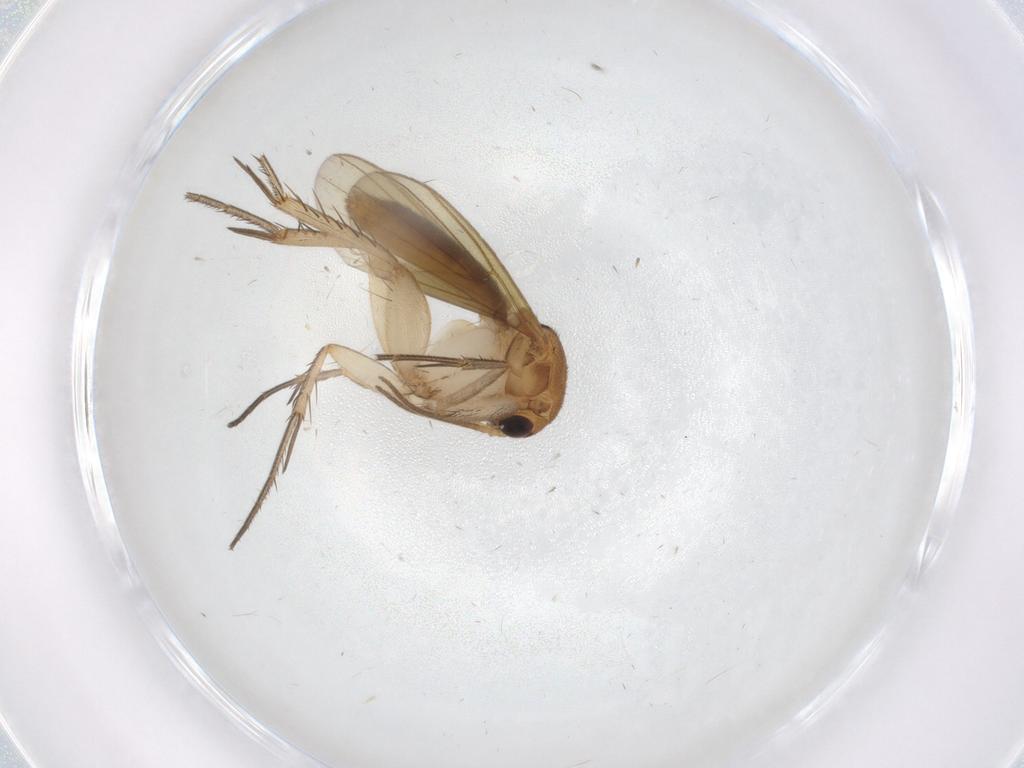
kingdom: Animalia
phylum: Arthropoda
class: Insecta
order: Diptera
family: Mycetophilidae
